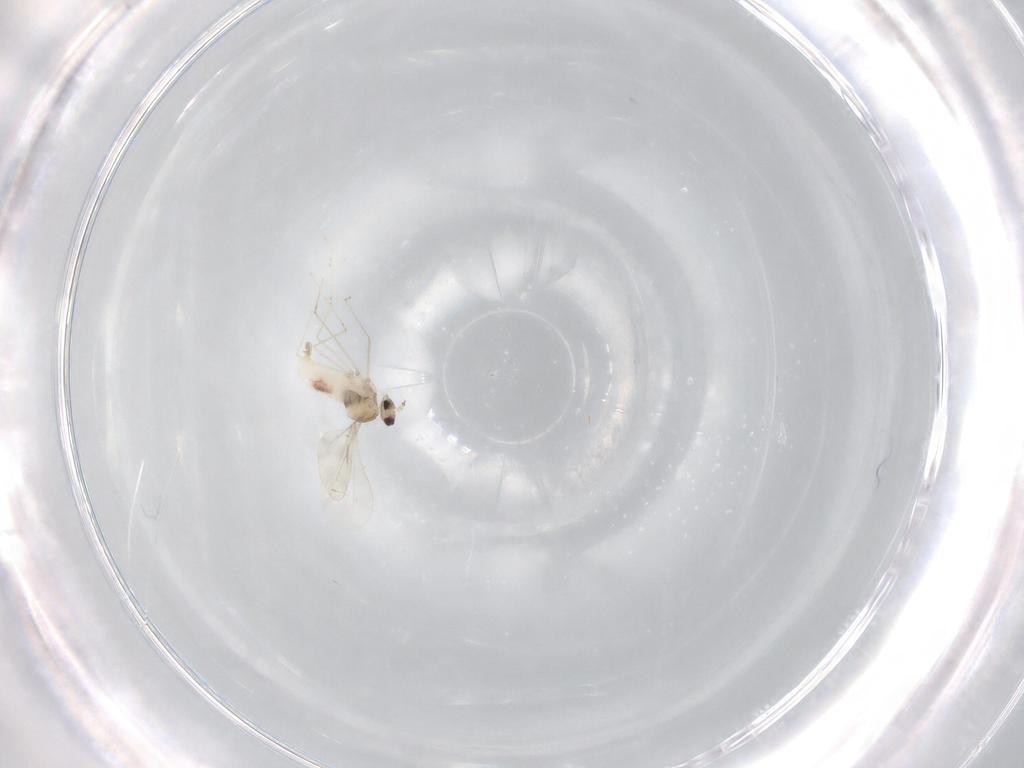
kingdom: Animalia
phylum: Arthropoda
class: Insecta
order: Diptera
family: Cecidomyiidae
